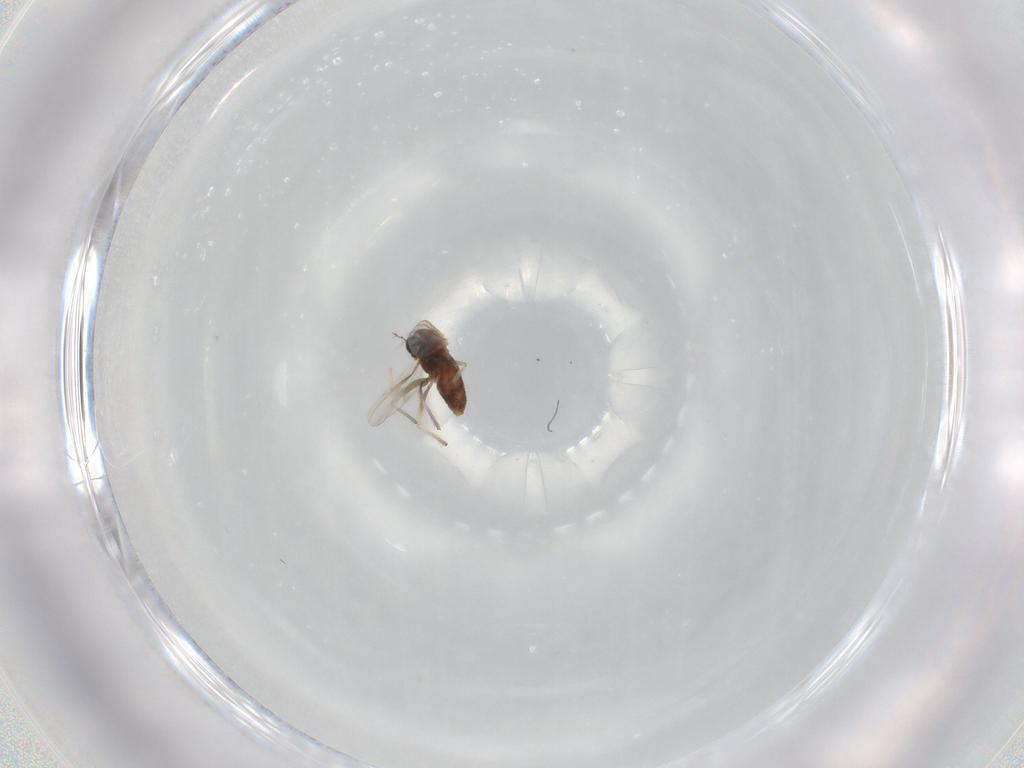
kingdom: Animalia
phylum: Arthropoda
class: Insecta
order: Diptera
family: Chironomidae
